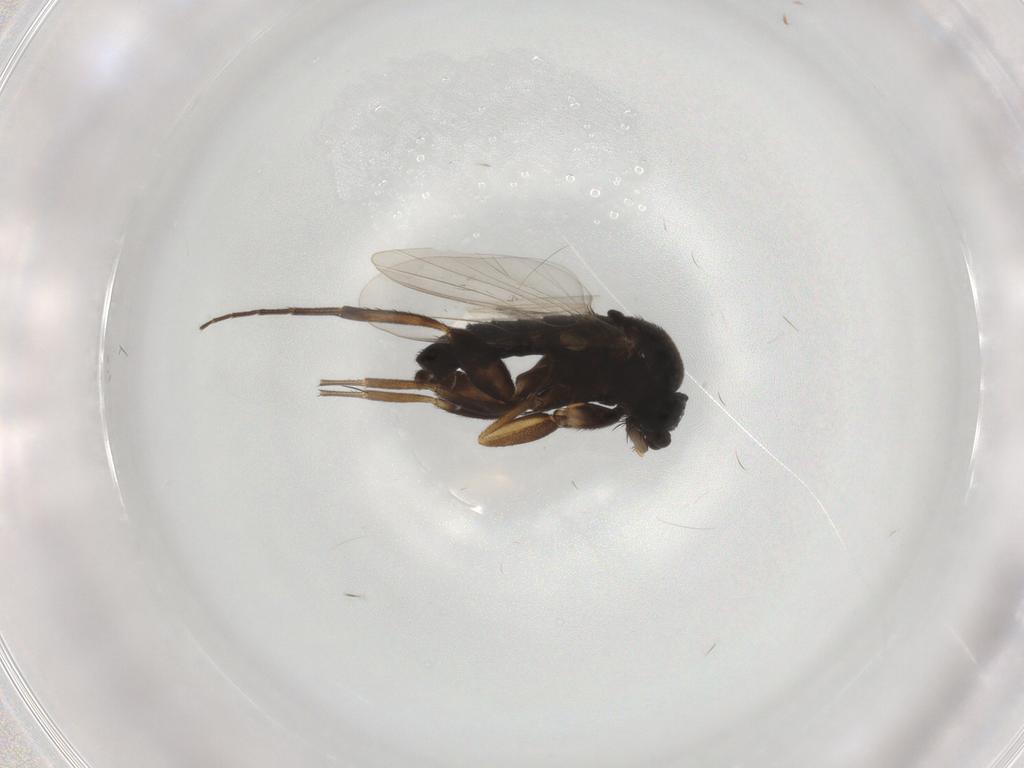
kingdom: Animalia
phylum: Arthropoda
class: Insecta
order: Diptera
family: Phoridae
